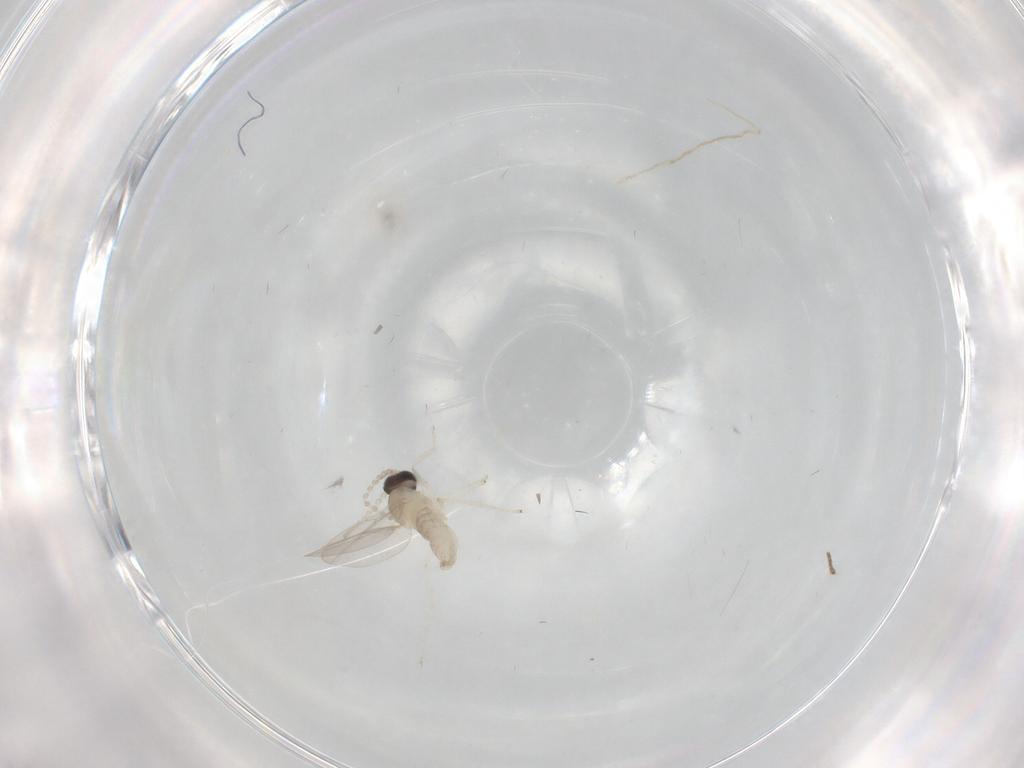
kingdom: Animalia
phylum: Arthropoda
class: Insecta
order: Diptera
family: Cecidomyiidae
